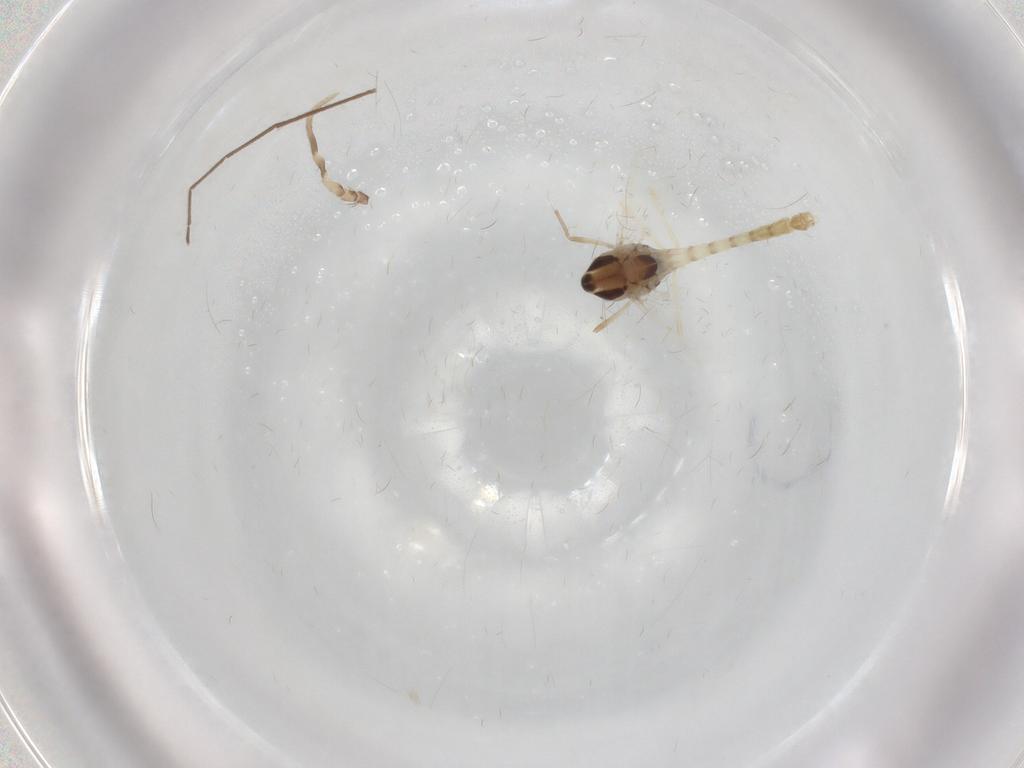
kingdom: Animalia
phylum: Arthropoda
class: Insecta
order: Diptera
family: Chironomidae
